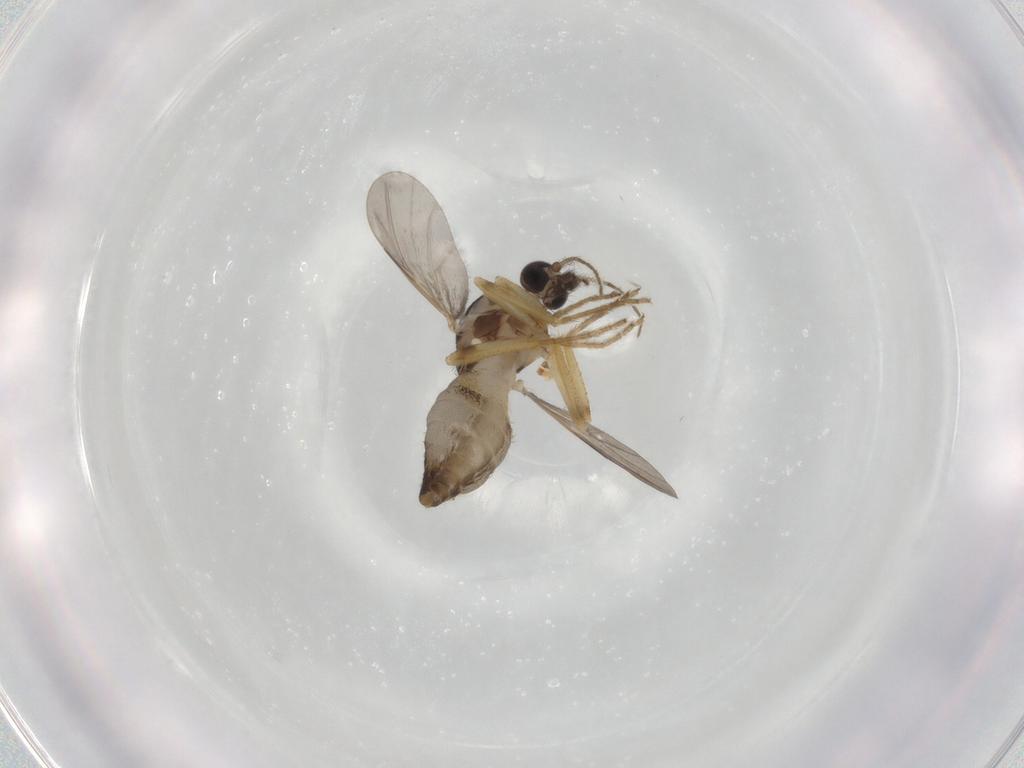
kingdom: Animalia
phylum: Arthropoda
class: Insecta
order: Diptera
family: Cecidomyiidae
